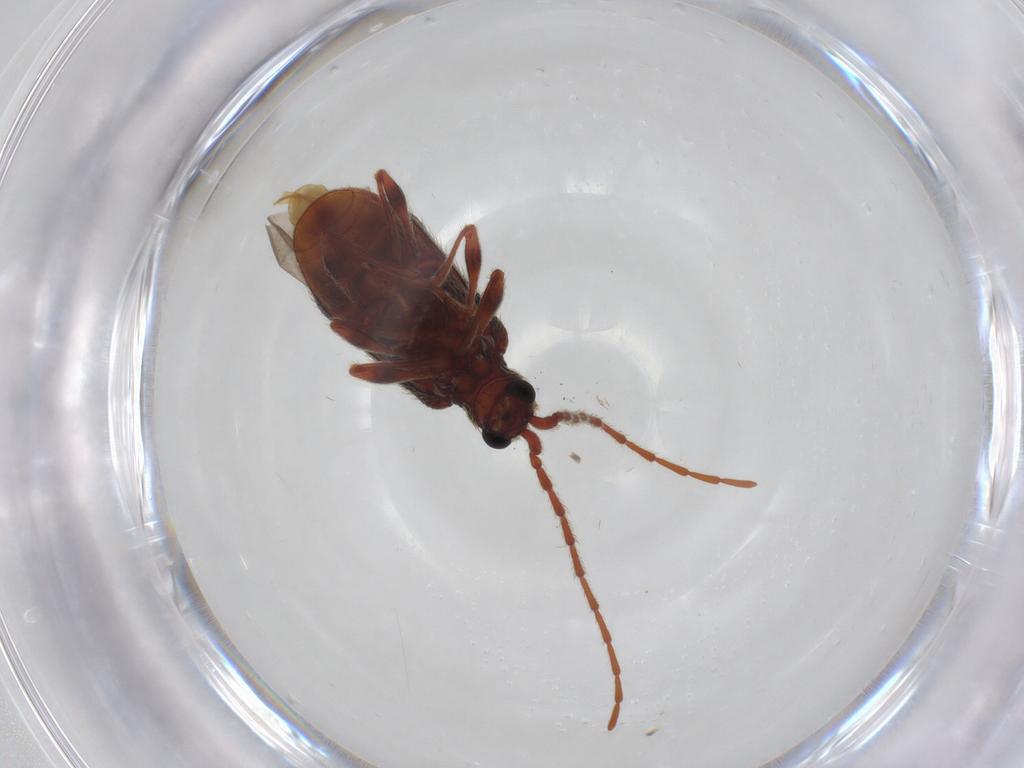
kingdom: Animalia
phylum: Arthropoda
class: Insecta
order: Coleoptera
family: Ptinidae
